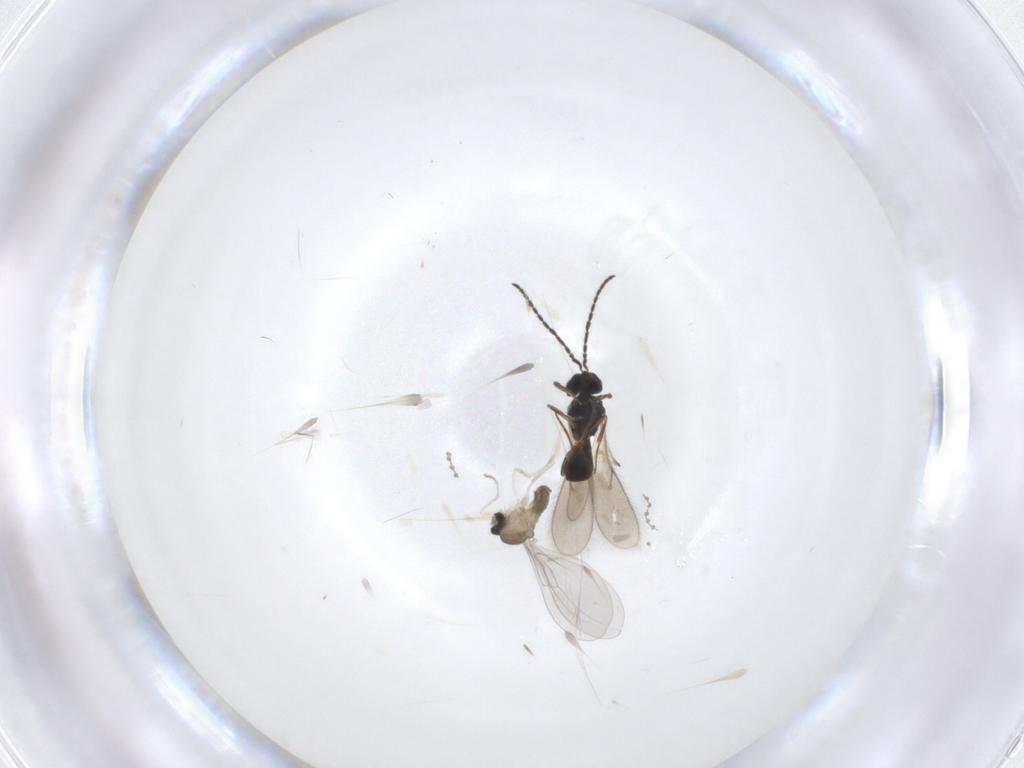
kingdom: Animalia
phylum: Arthropoda
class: Insecta
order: Diptera
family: Cecidomyiidae
